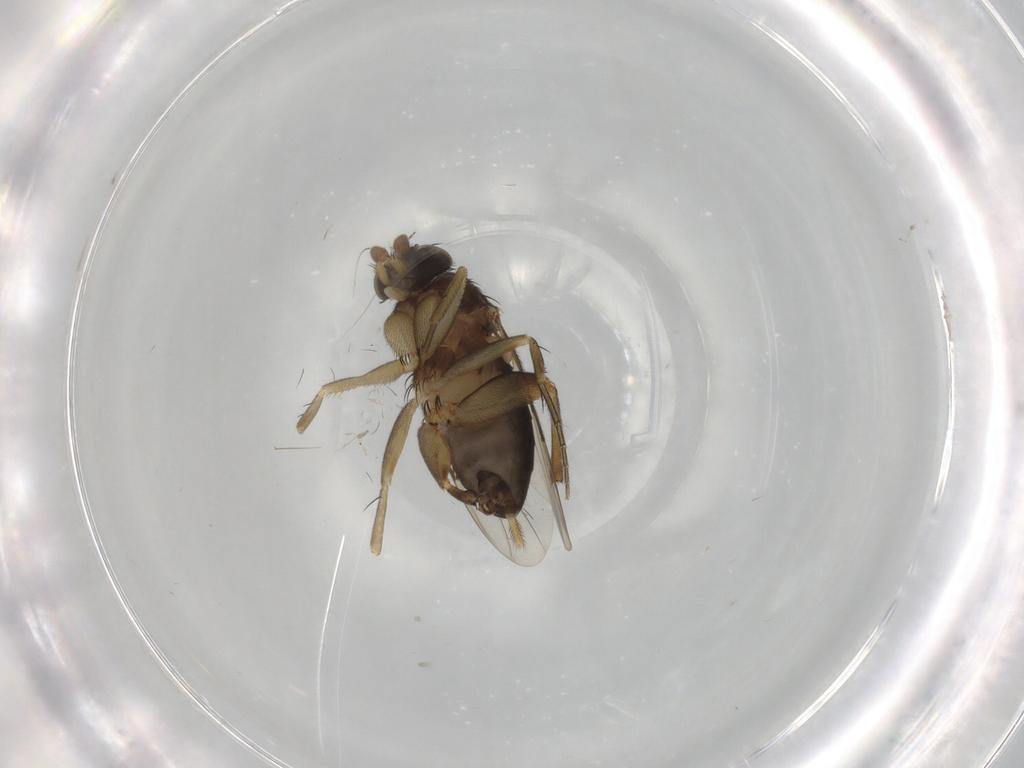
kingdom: Animalia
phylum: Arthropoda
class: Insecta
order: Diptera
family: Phoridae
